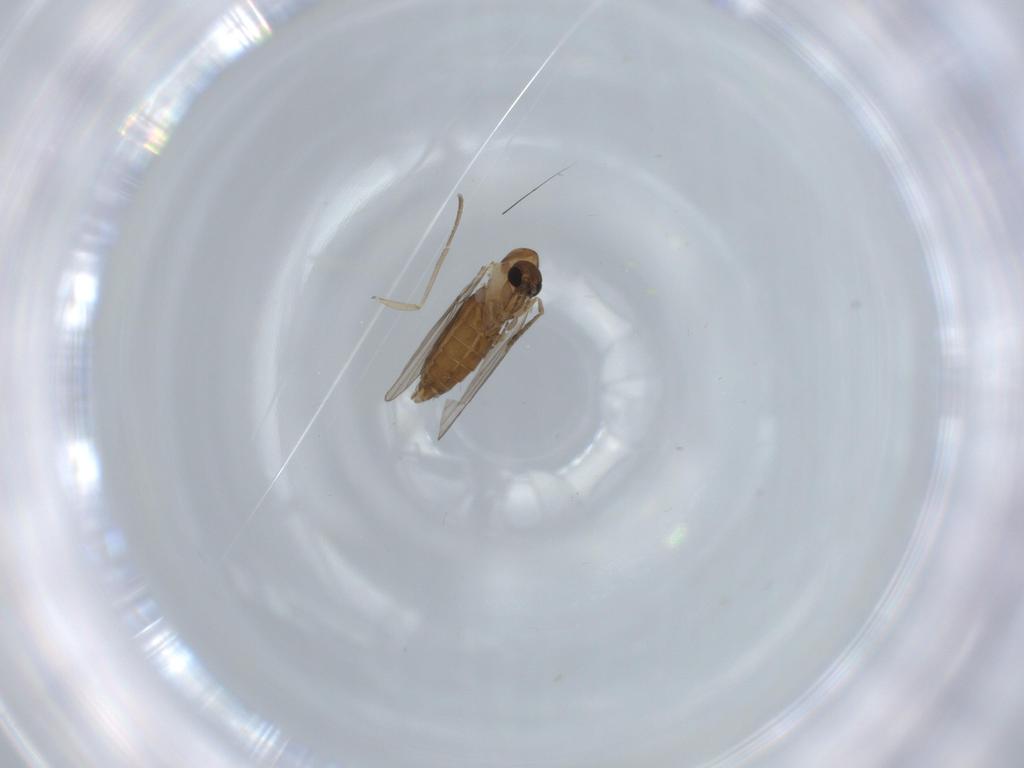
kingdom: Animalia
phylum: Arthropoda
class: Insecta
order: Diptera
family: Psychodidae
